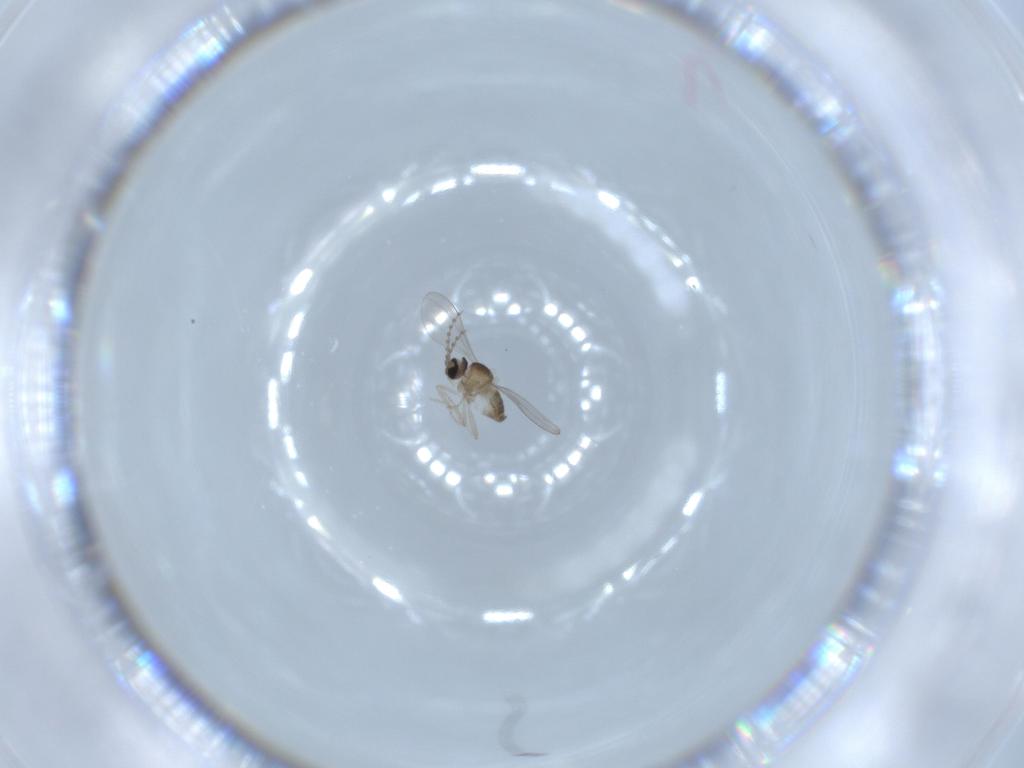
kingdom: Animalia
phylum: Arthropoda
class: Insecta
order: Diptera
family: Cecidomyiidae
